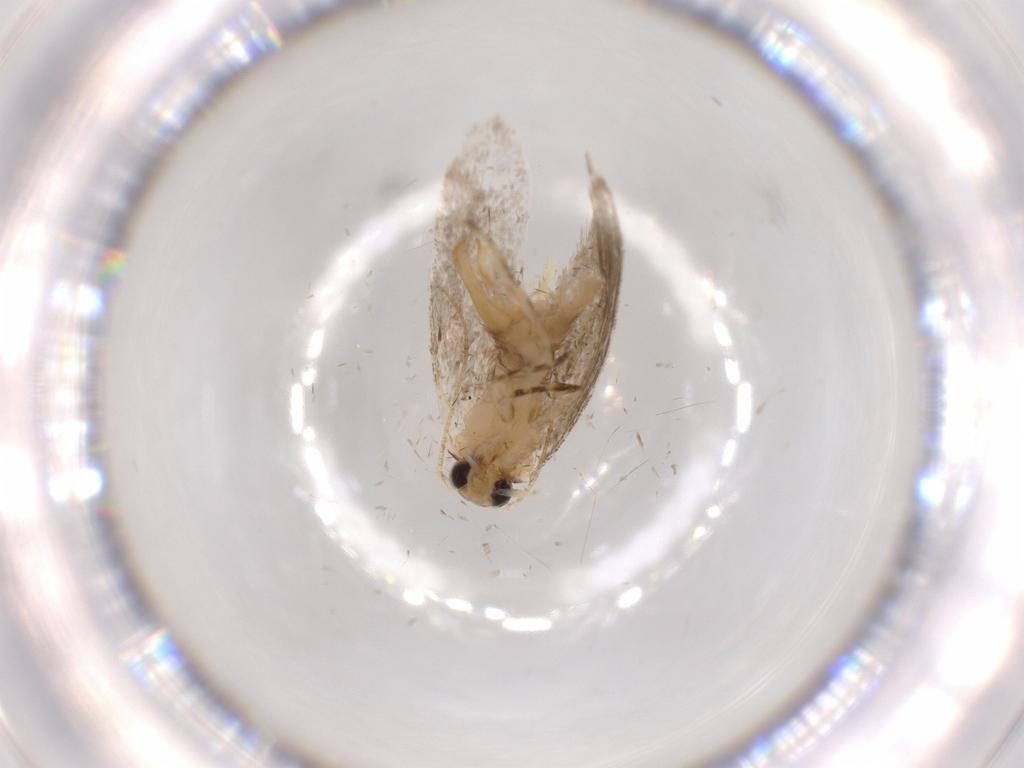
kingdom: Animalia
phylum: Arthropoda
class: Insecta
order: Lepidoptera
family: Tineidae
